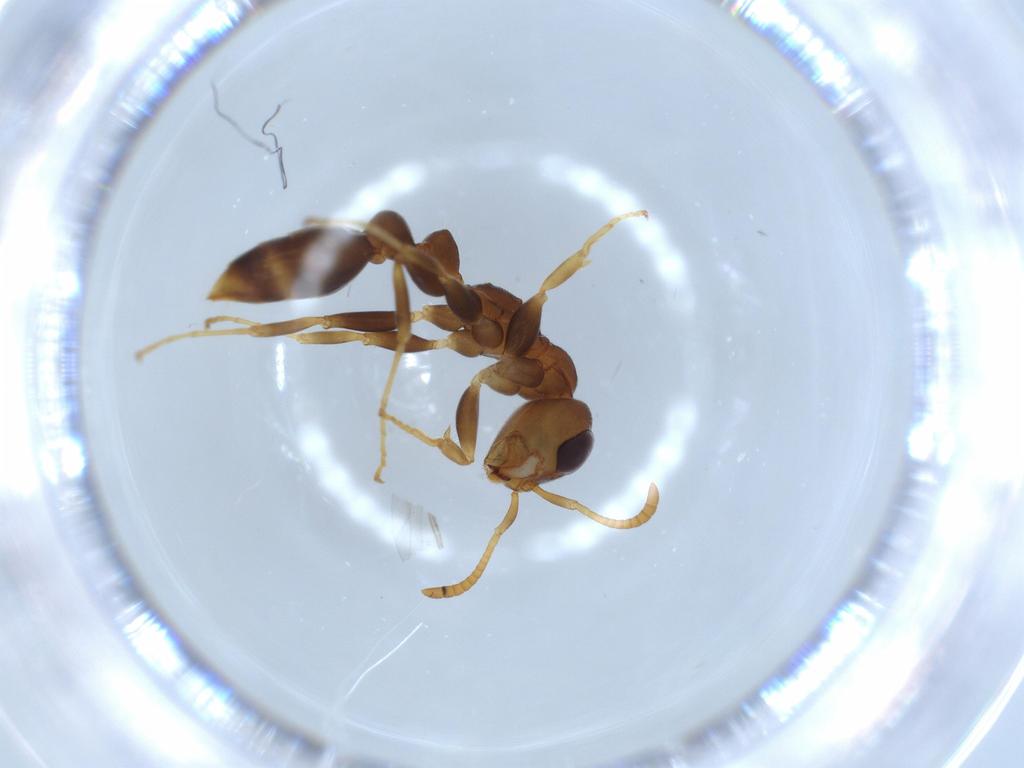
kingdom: Animalia
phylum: Arthropoda
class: Insecta
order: Hymenoptera
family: Formicidae
